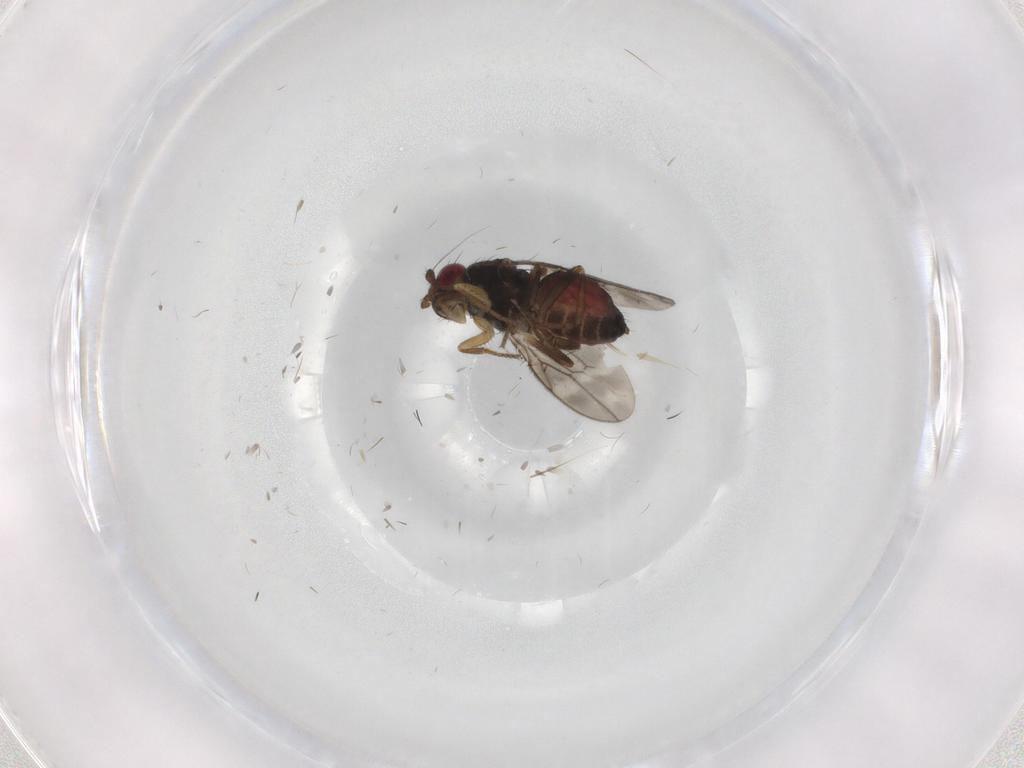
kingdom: Animalia
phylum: Arthropoda
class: Insecta
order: Diptera
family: Sphaeroceridae
